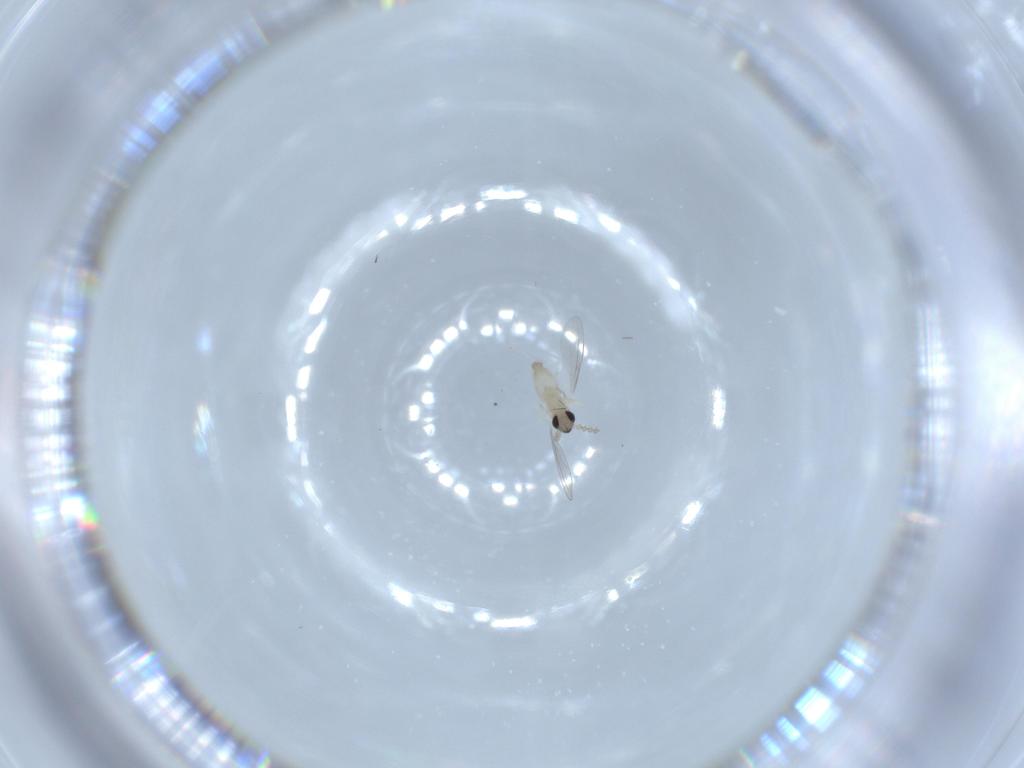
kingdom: Animalia
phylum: Arthropoda
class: Insecta
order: Diptera
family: Cecidomyiidae
